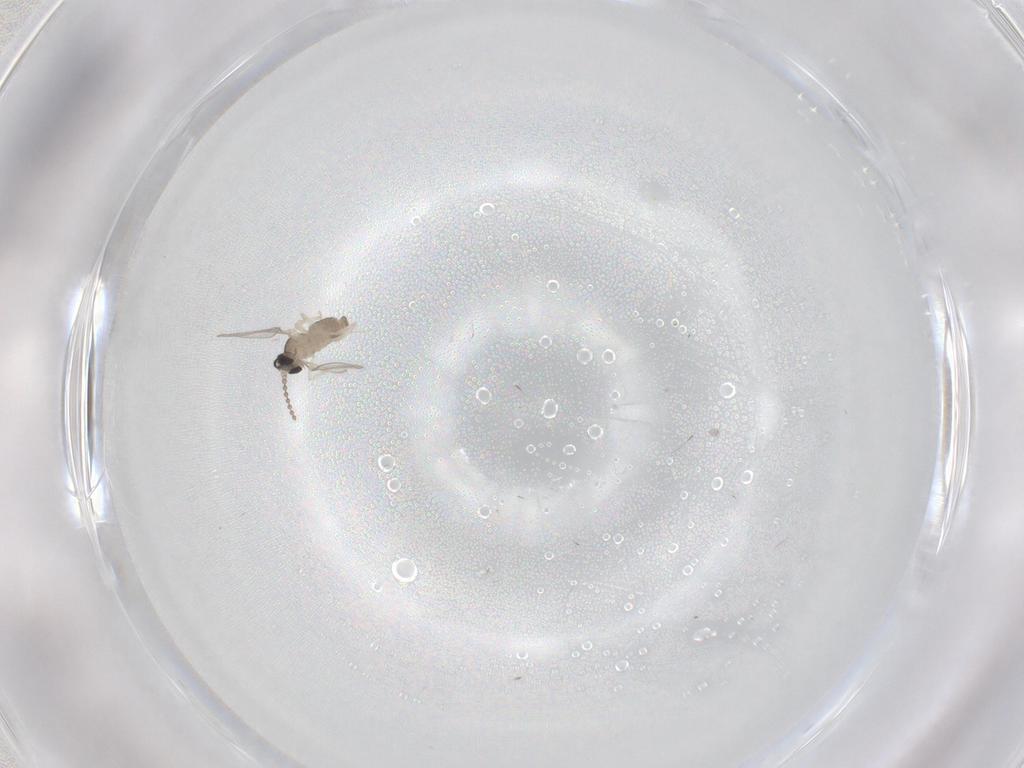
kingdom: Animalia
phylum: Arthropoda
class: Insecta
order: Diptera
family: Cecidomyiidae
